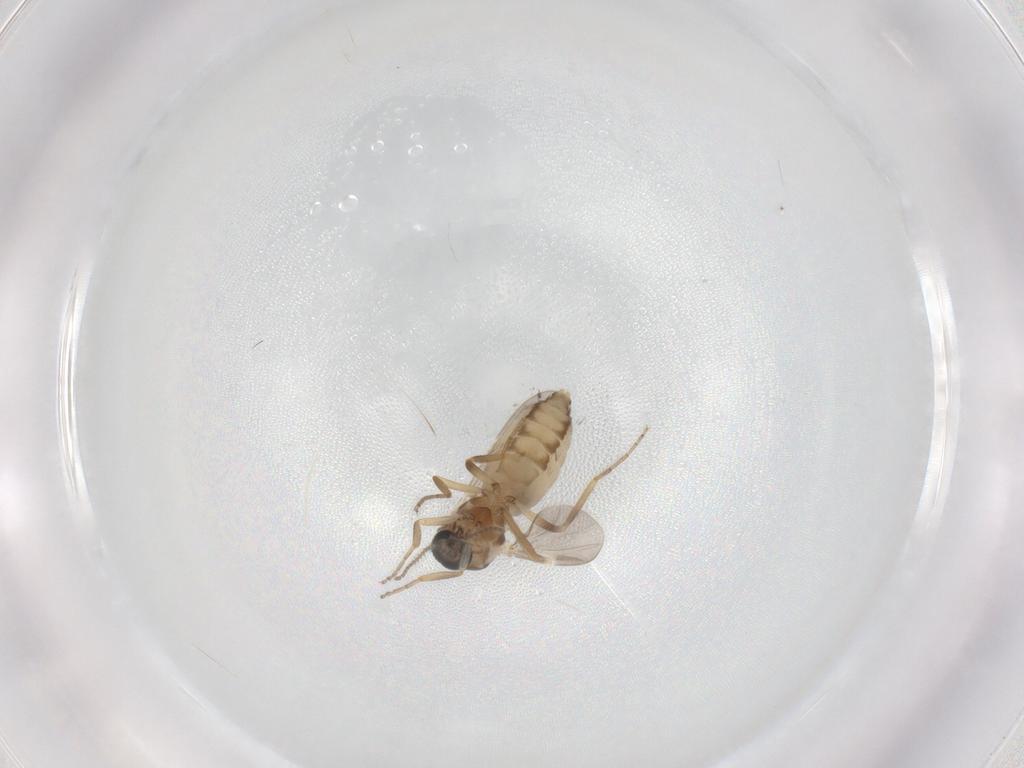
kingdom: Animalia
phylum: Arthropoda
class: Insecta
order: Diptera
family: Ceratopogonidae
